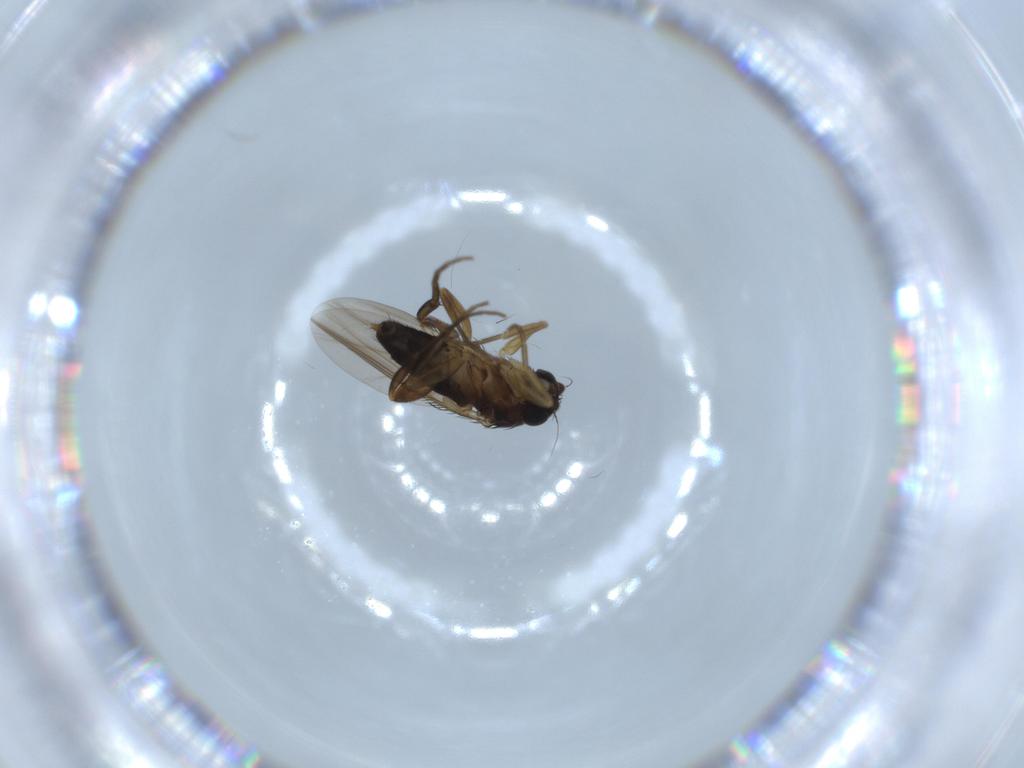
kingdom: Animalia
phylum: Arthropoda
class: Insecta
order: Diptera
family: Phoridae
